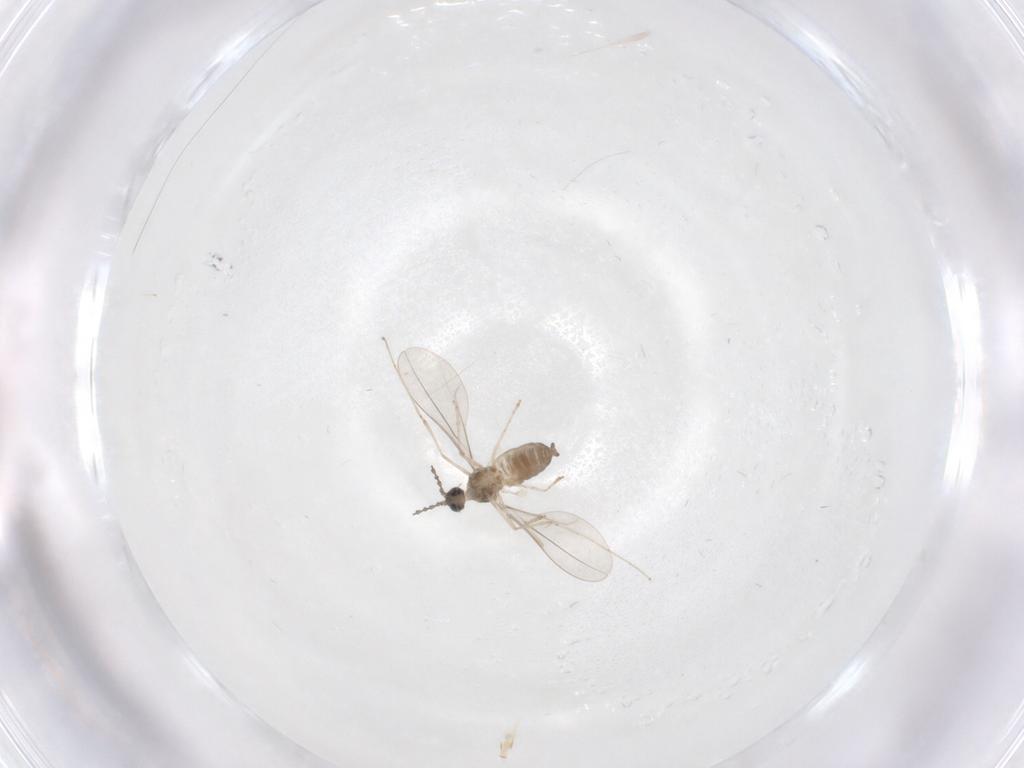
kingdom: Animalia
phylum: Arthropoda
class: Insecta
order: Diptera
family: Cecidomyiidae
